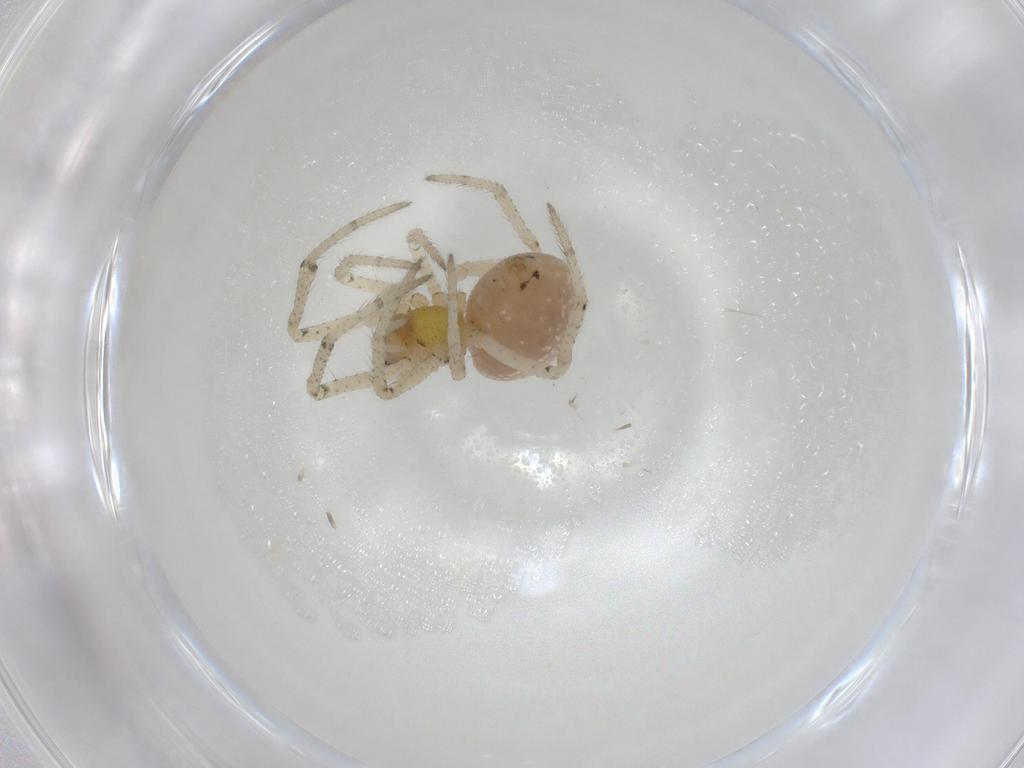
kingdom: Animalia
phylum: Arthropoda
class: Arachnida
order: Araneae
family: Theridiidae
